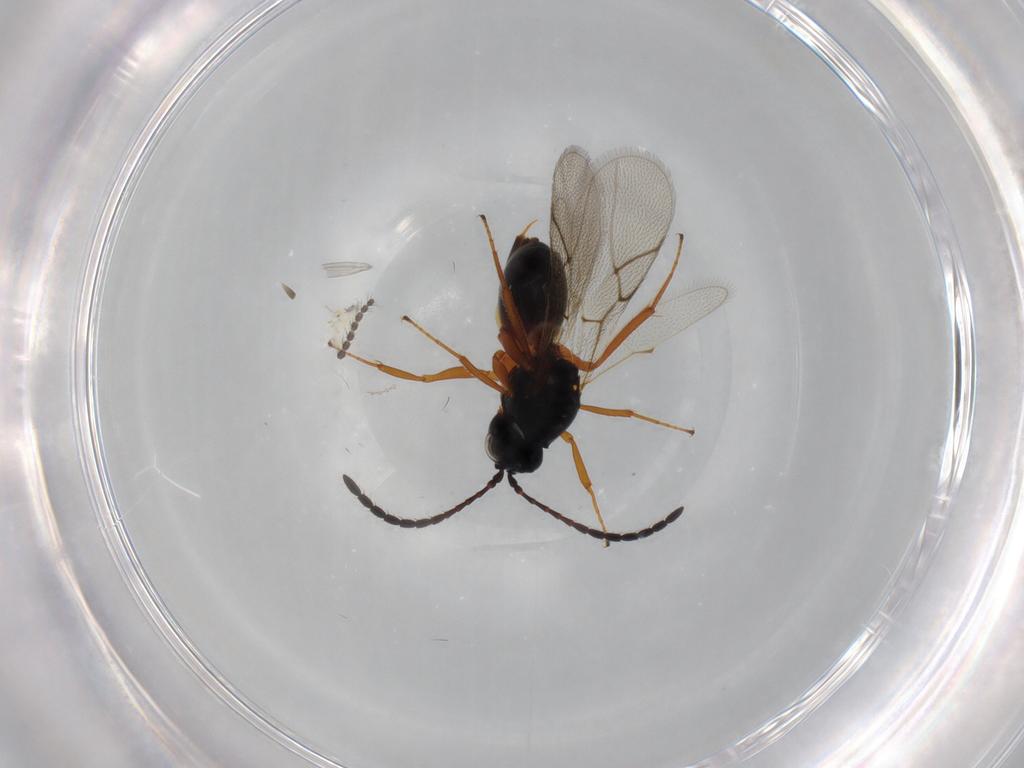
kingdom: Animalia
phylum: Arthropoda
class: Insecta
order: Hymenoptera
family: Figitidae
